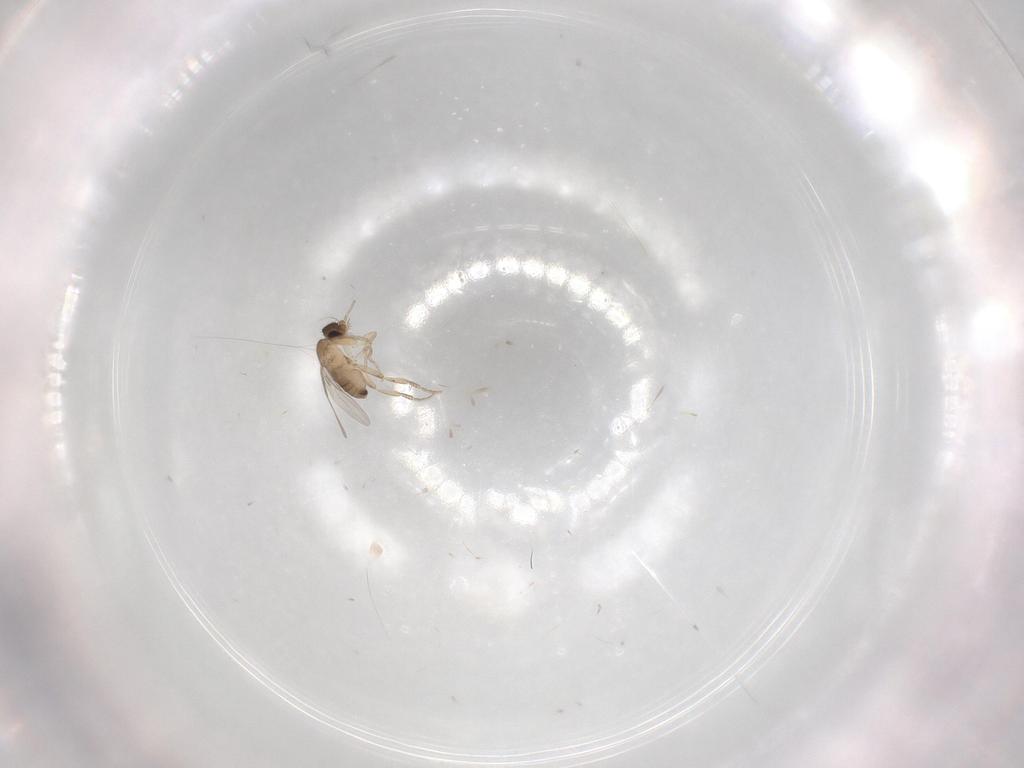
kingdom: Animalia
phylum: Arthropoda
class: Insecta
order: Diptera
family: Phoridae
